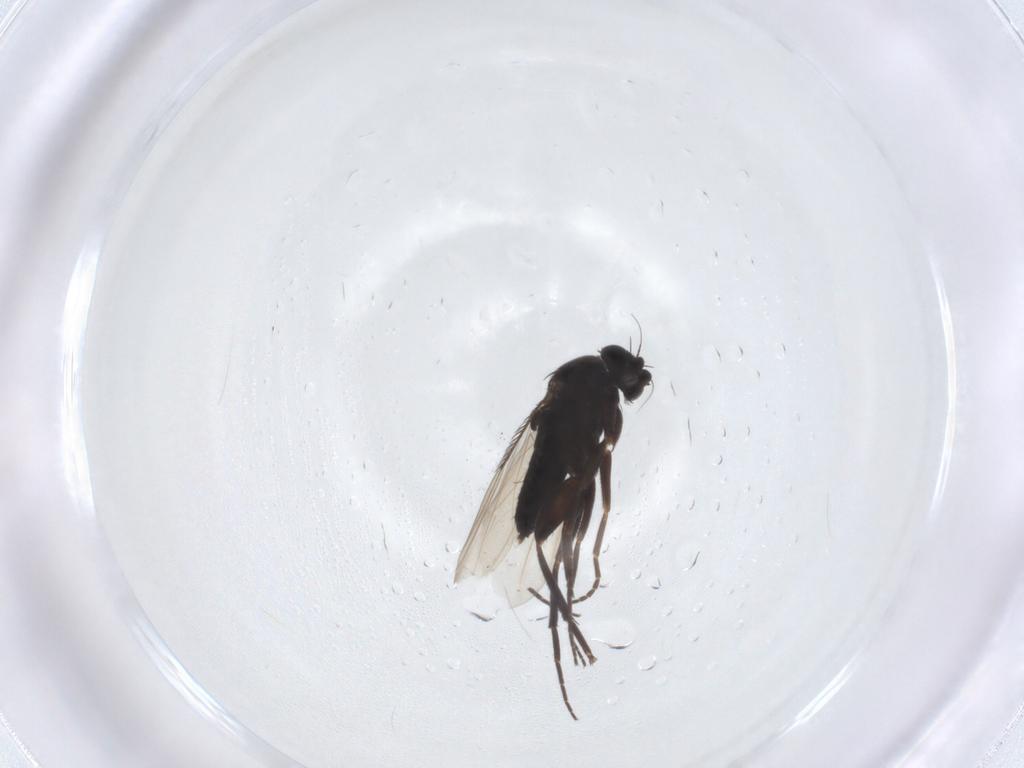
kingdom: Animalia
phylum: Arthropoda
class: Insecta
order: Diptera
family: Phoridae
